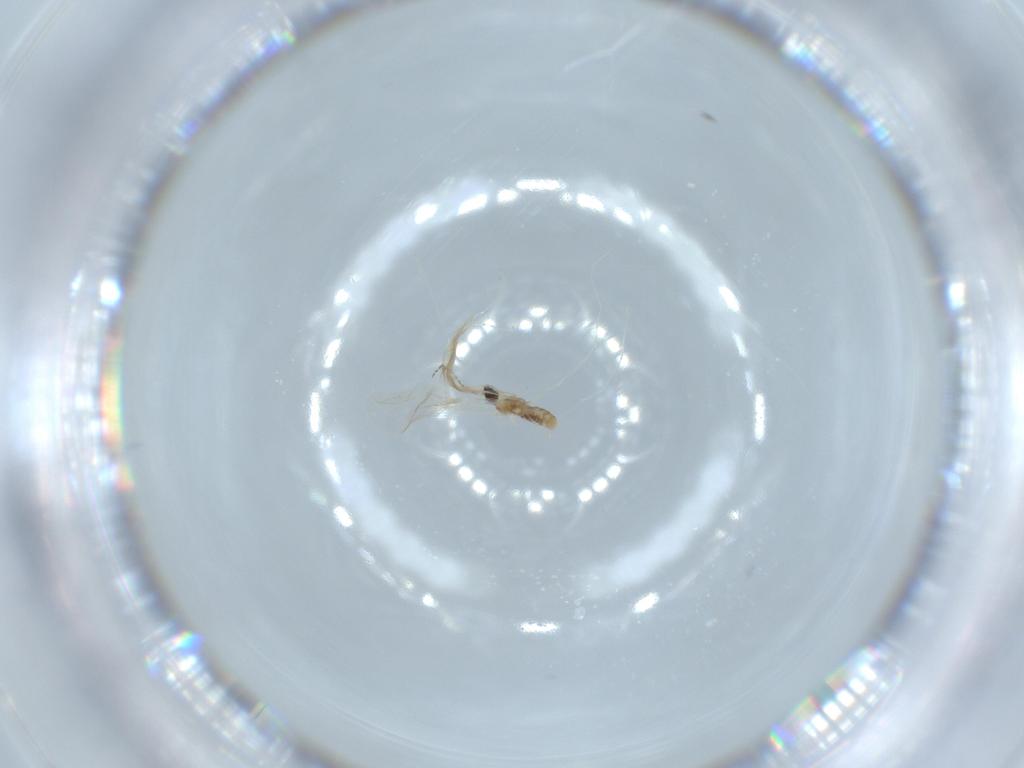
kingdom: Animalia
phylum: Arthropoda
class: Insecta
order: Diptera
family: Cecidomyiidae
